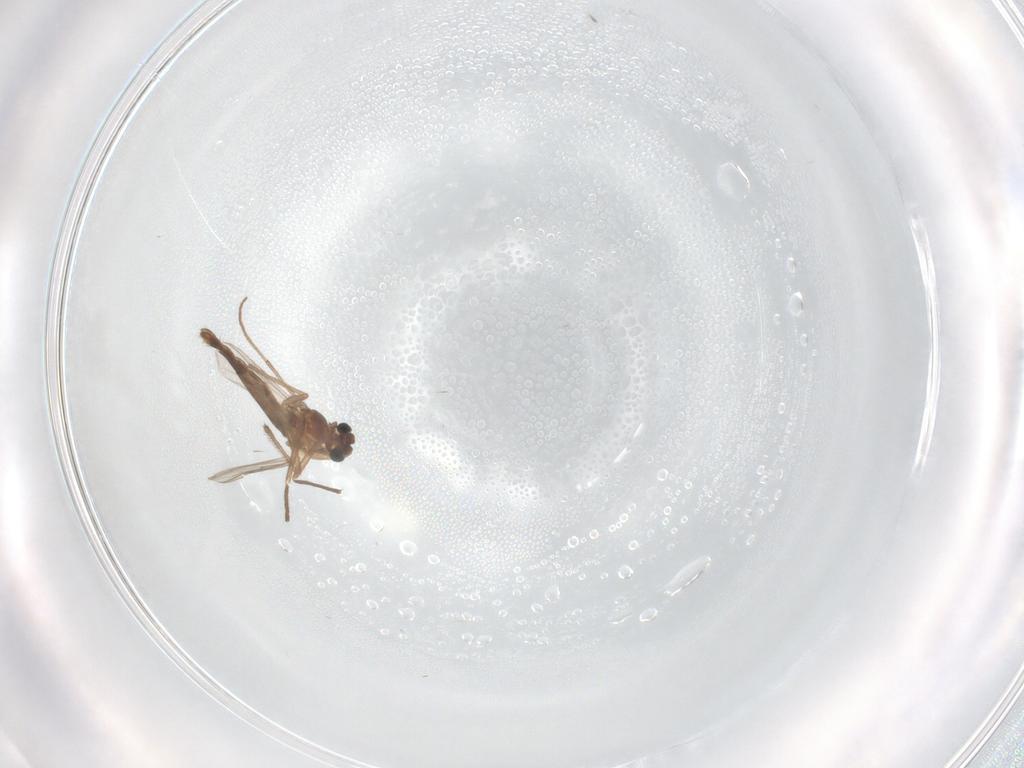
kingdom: Animalia
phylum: Arthropoda
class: Insecta
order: Diptera
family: Chironomidae
